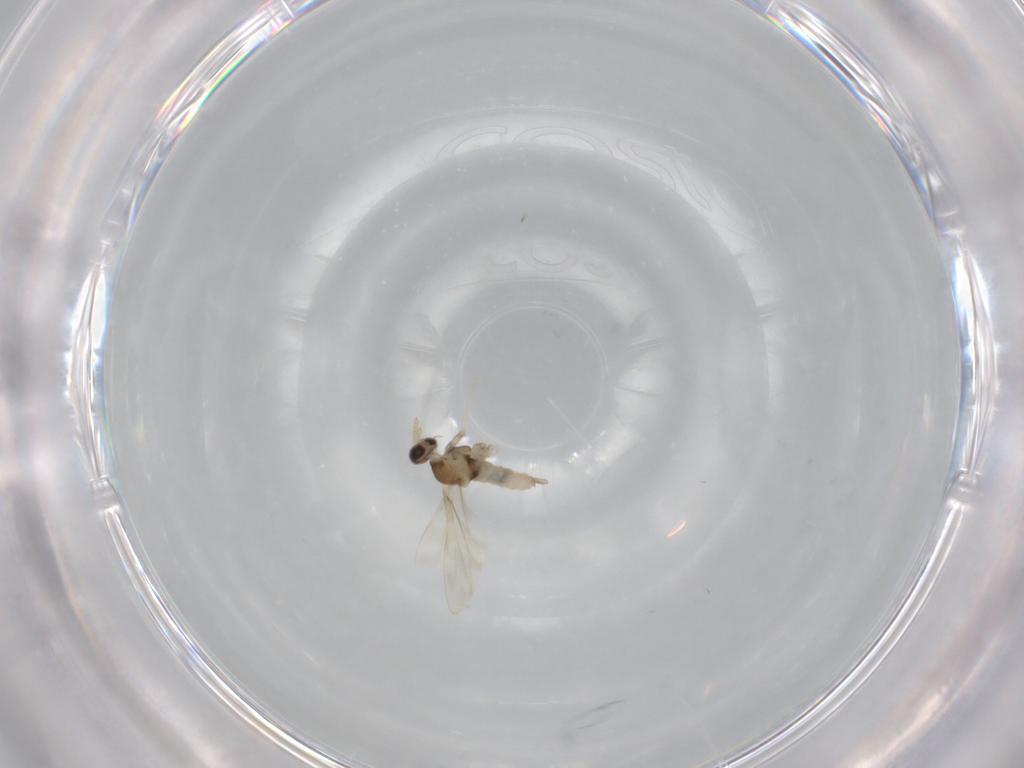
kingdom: Animalia
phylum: Arthropoda
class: Insecta
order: Diptera
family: Cecidomyiidae
